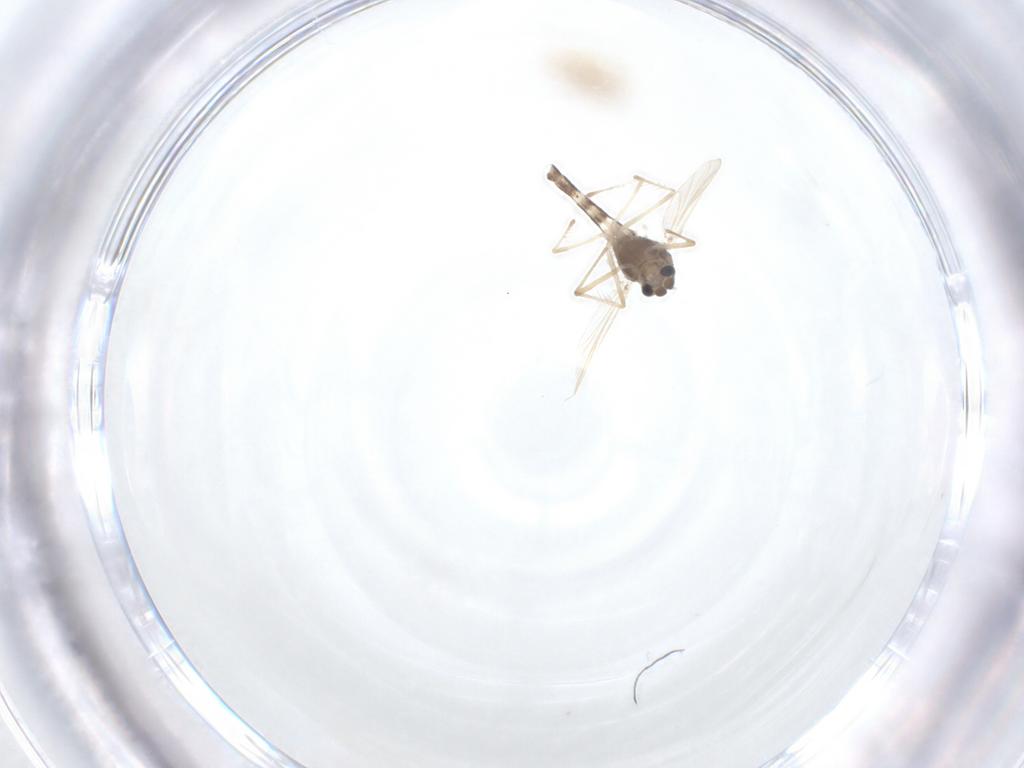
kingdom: Animalia
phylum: Arthropoda
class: Insecta
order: Diptera
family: Chironomidae
